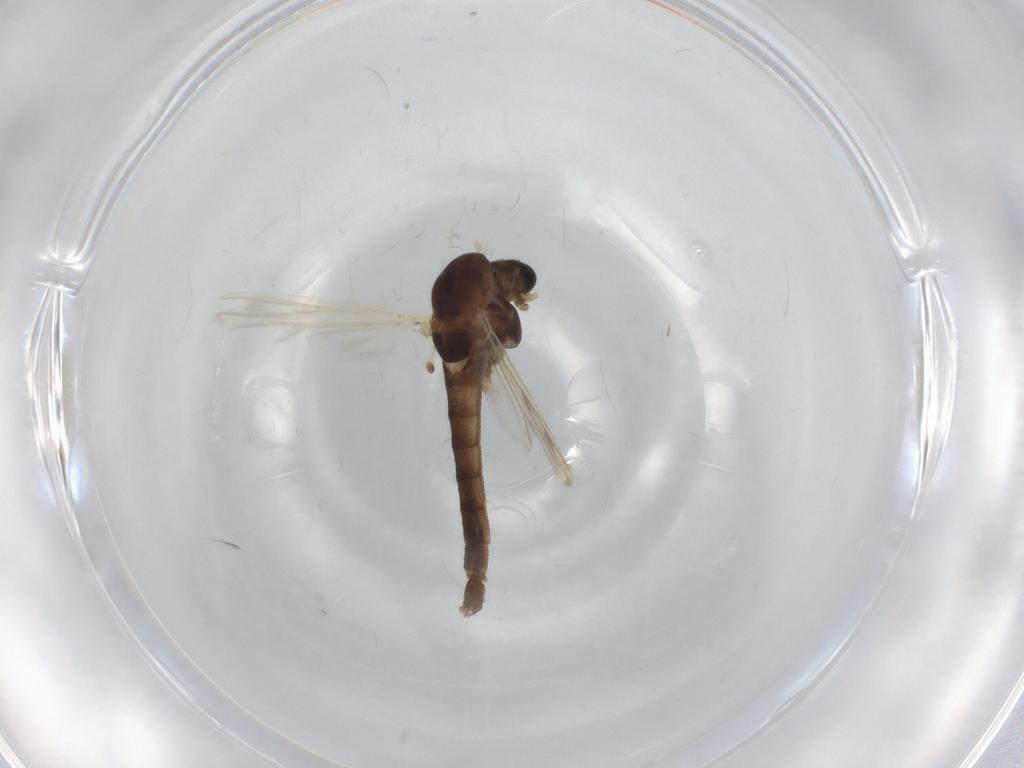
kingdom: Animalia
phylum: Arthropoda
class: Insecta
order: Diptera
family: Chironomidae
